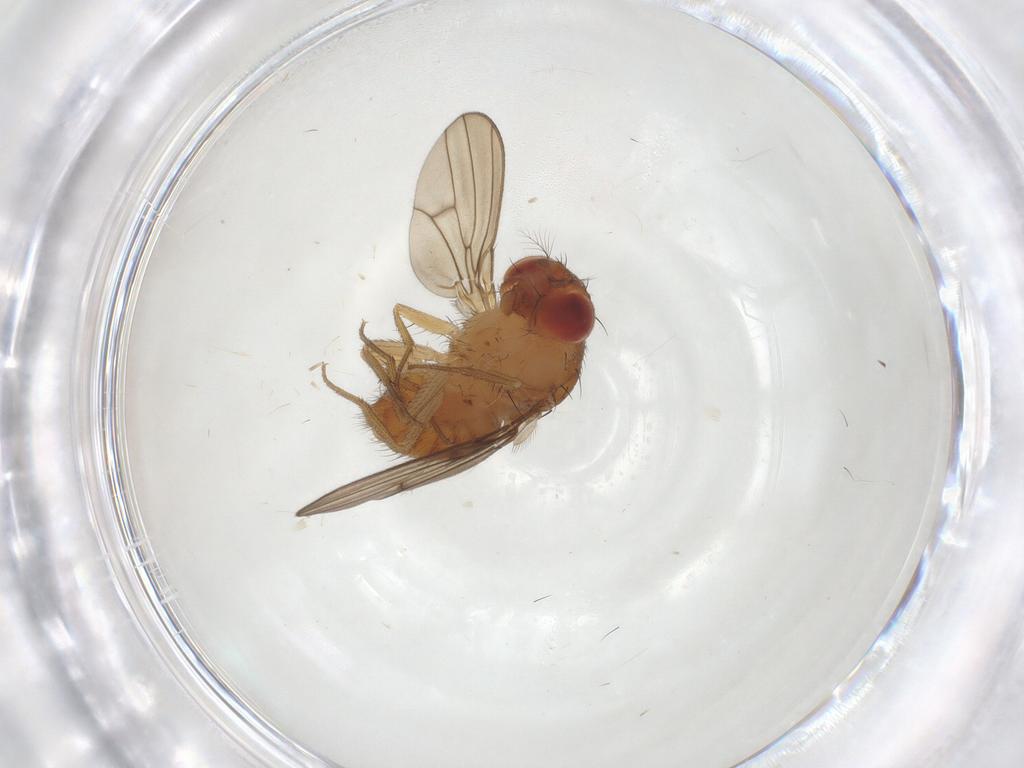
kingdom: Animalia
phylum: Arthropoda
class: Insecta
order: Diptera
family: Drosophilidae
